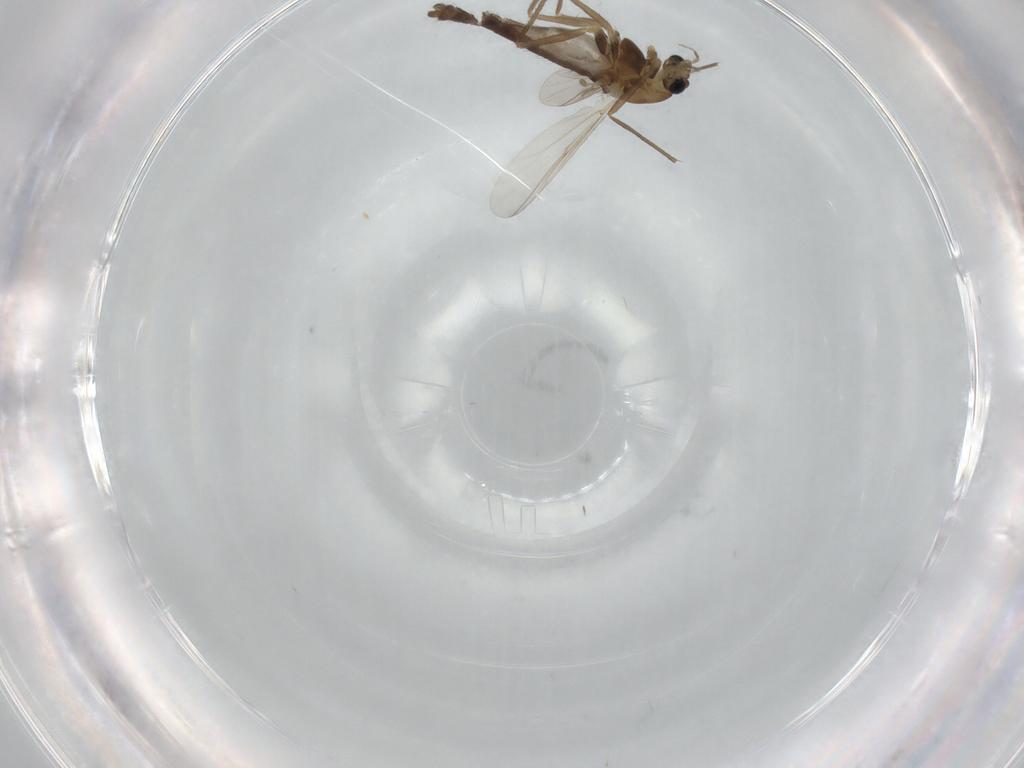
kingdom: Animalia
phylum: Arthropoda
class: Insecta
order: Diptera
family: Chironomidae
